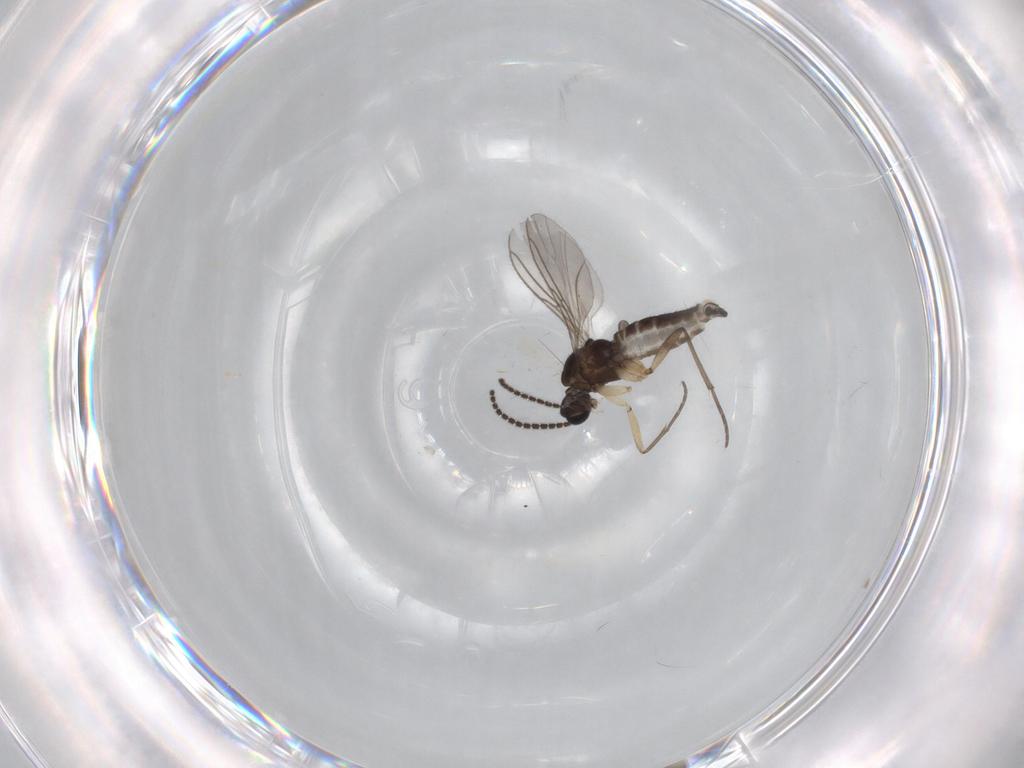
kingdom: Animalia
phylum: Arthropoda
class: Insecta
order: Diptera
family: Sciaridae
